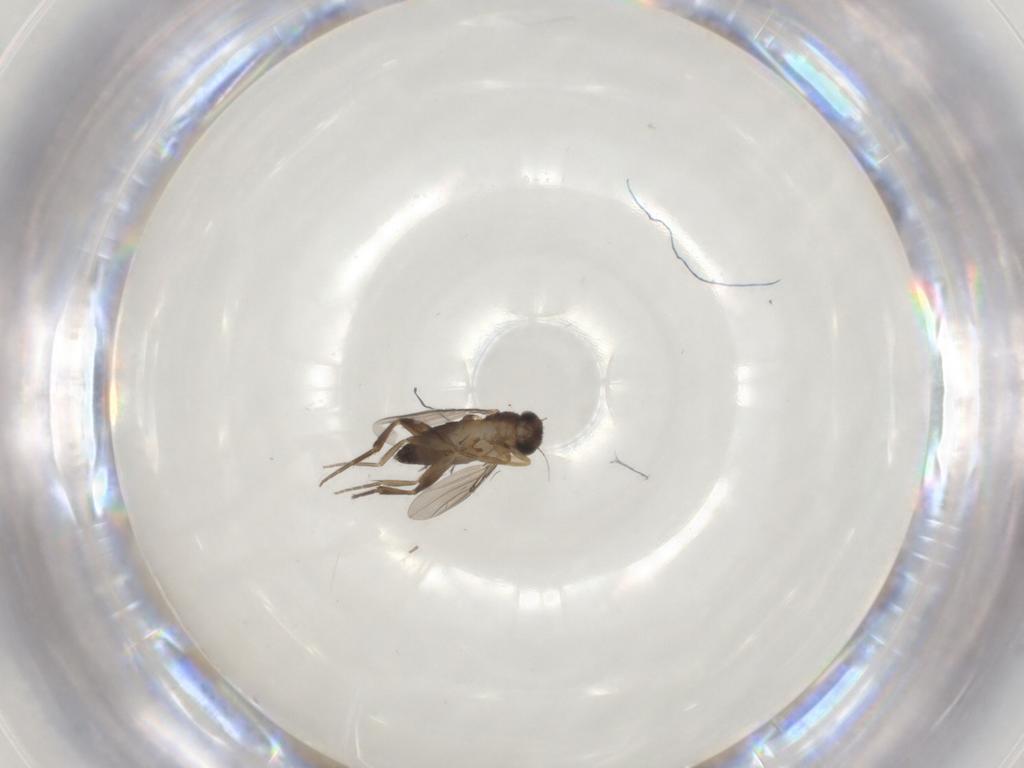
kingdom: Animalia
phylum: Arthropoda
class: Insecta
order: Diptera
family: Phoridae
